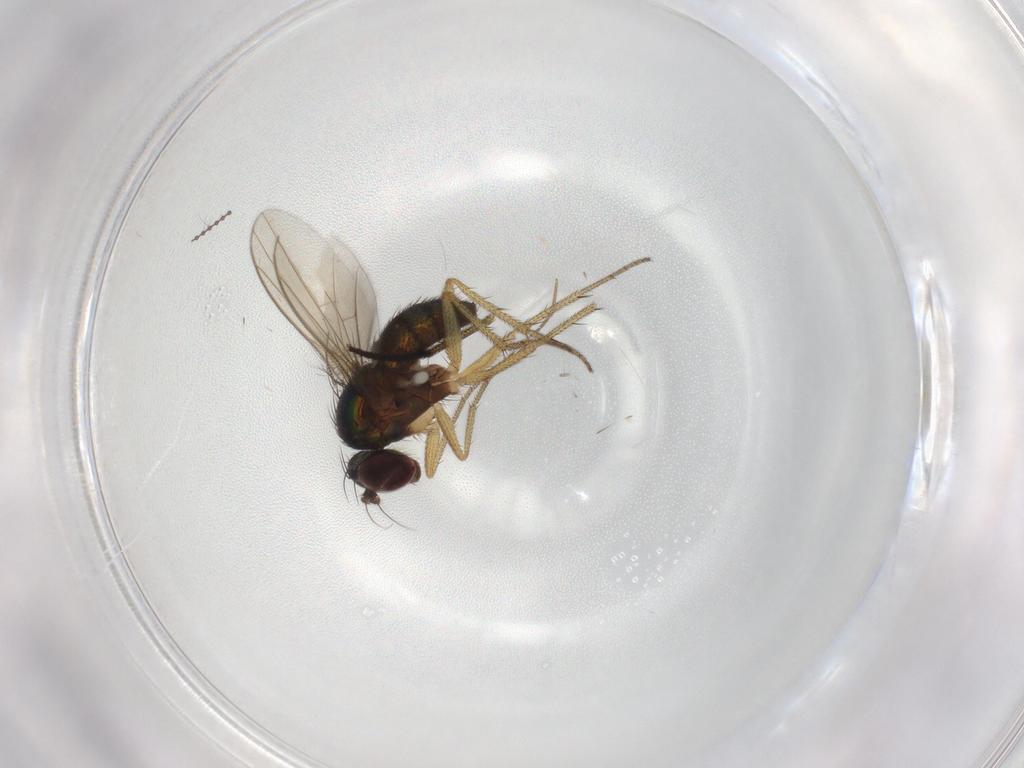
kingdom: Animalia
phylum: Arthropoda
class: Insecta
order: Diptera
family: Dolichopodidae
